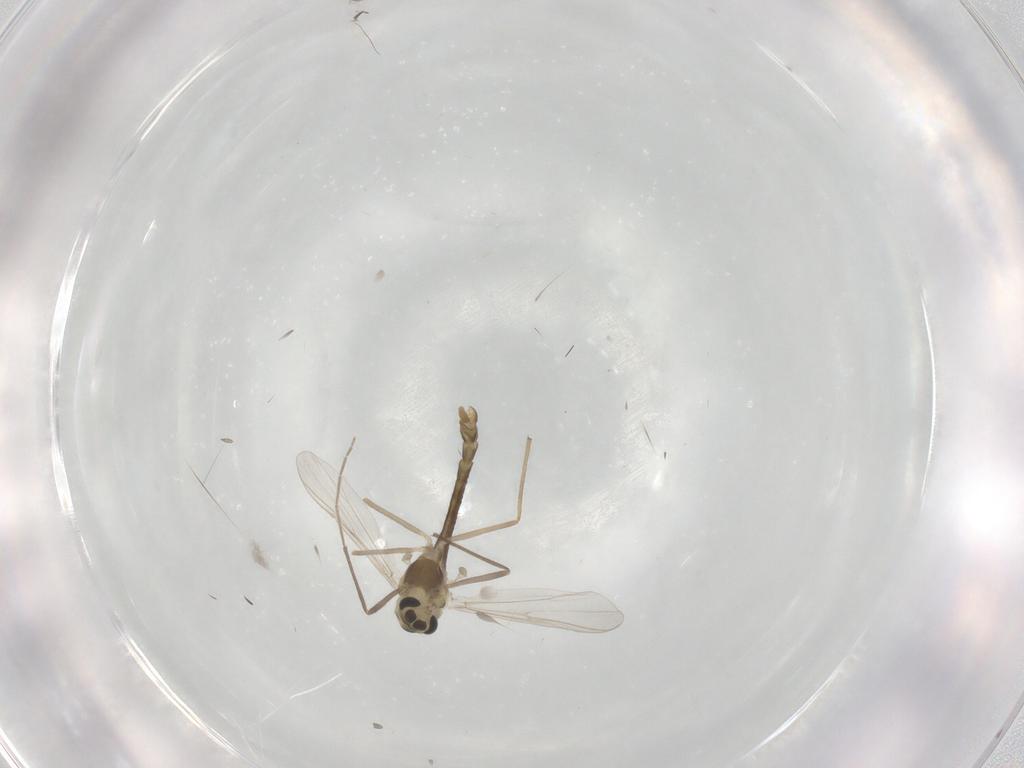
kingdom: Animalia
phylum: Arthropoda
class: Insecta
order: Diptera
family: Chironomidae
